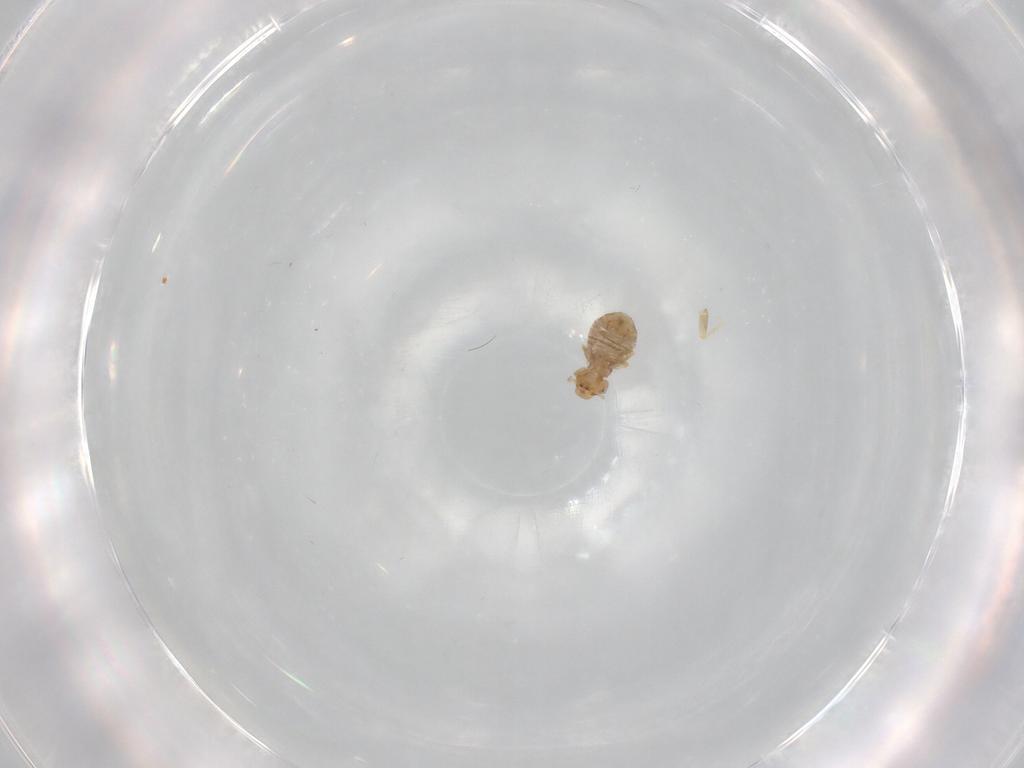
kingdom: Animalia
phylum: Arthropoda
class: Insecta
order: Psocodea
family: Liposcelididae
